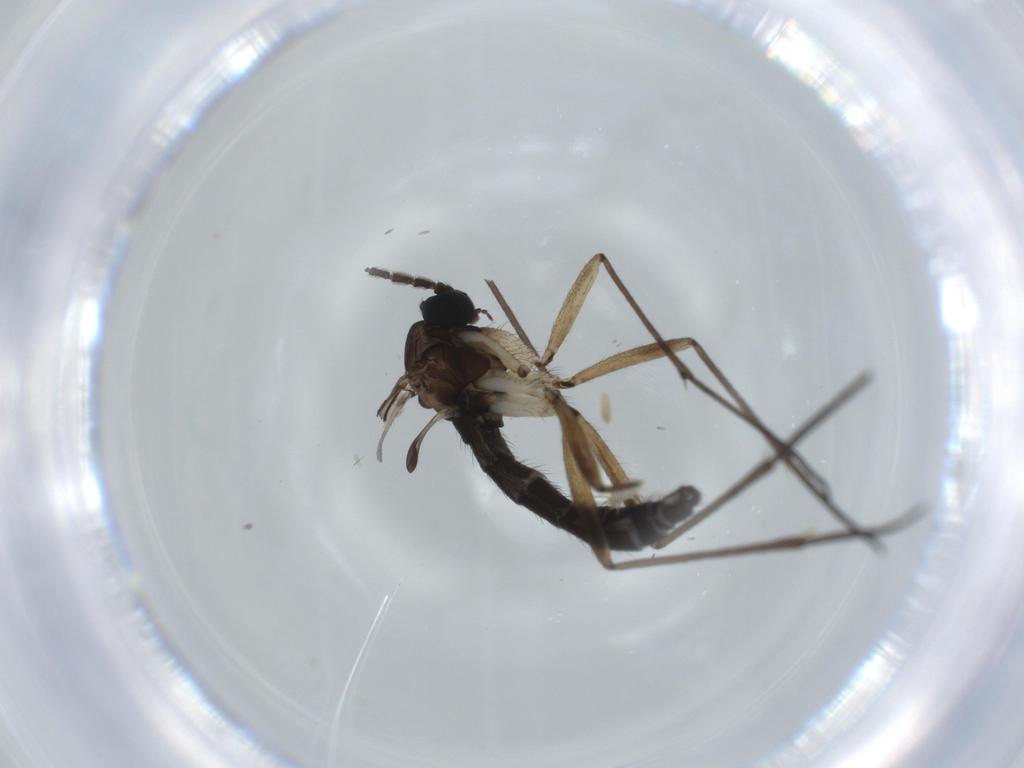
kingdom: Animalia
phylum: Arthropoda
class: Insecta
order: Diptera
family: Sciaridae
